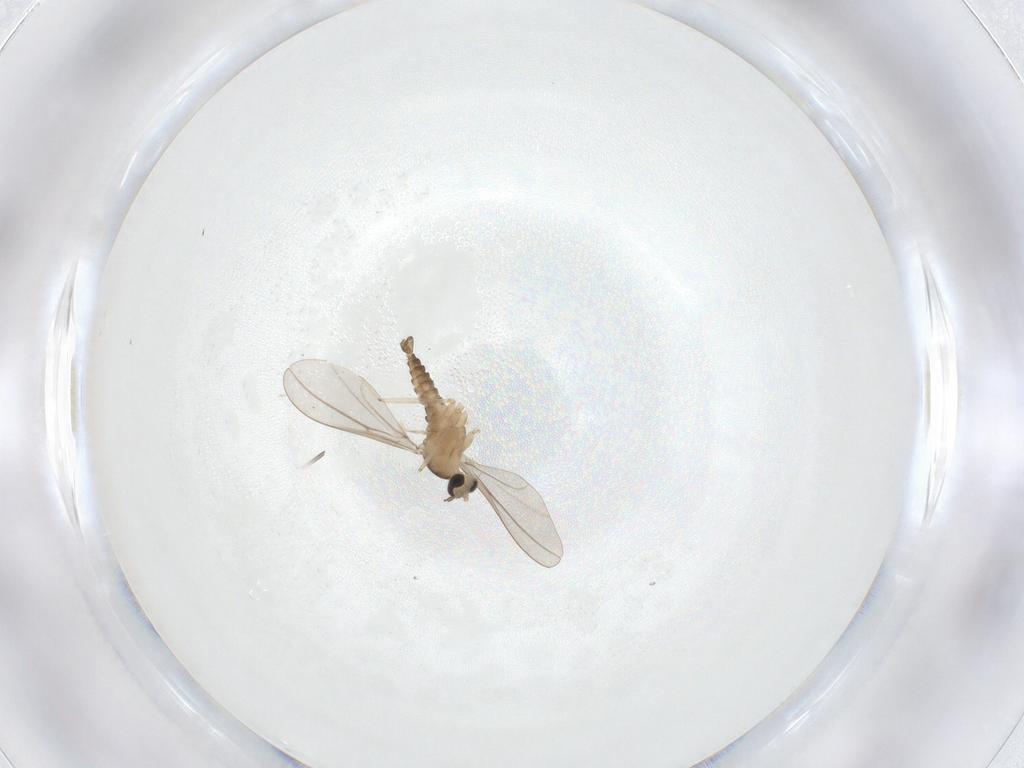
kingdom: Animalia
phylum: Arthropoda
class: Insecta
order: Diptera
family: Cecidomyiidae
